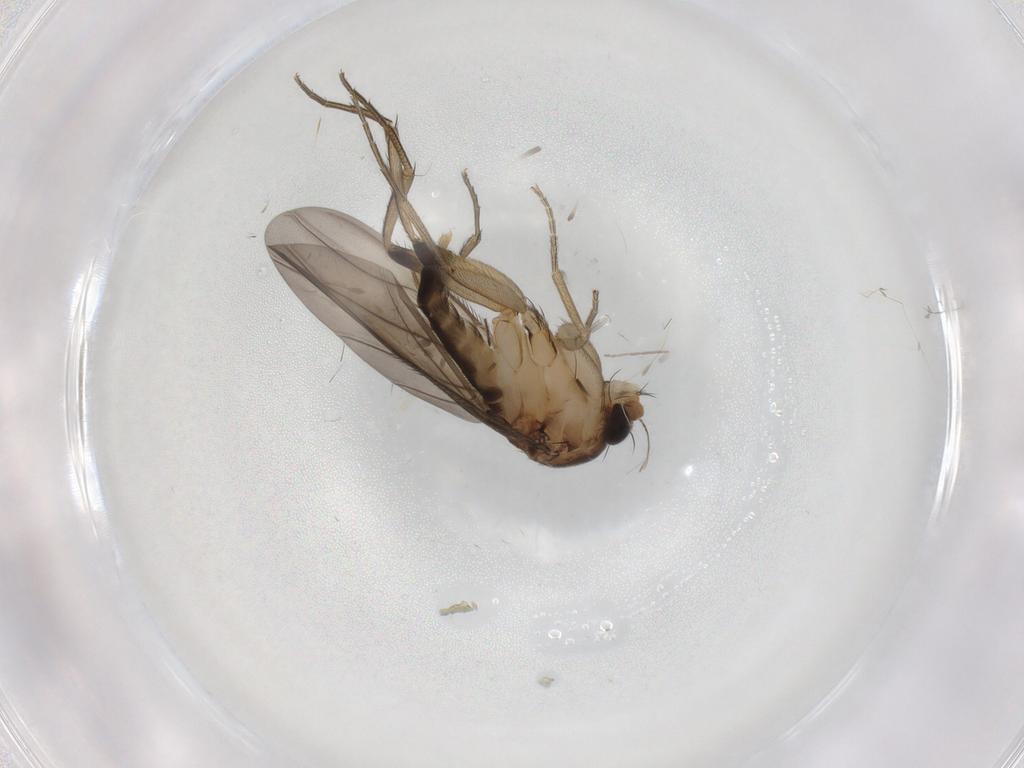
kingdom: Animalia
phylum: Arthropoda
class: Insecta
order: Diptera
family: Phoridae
